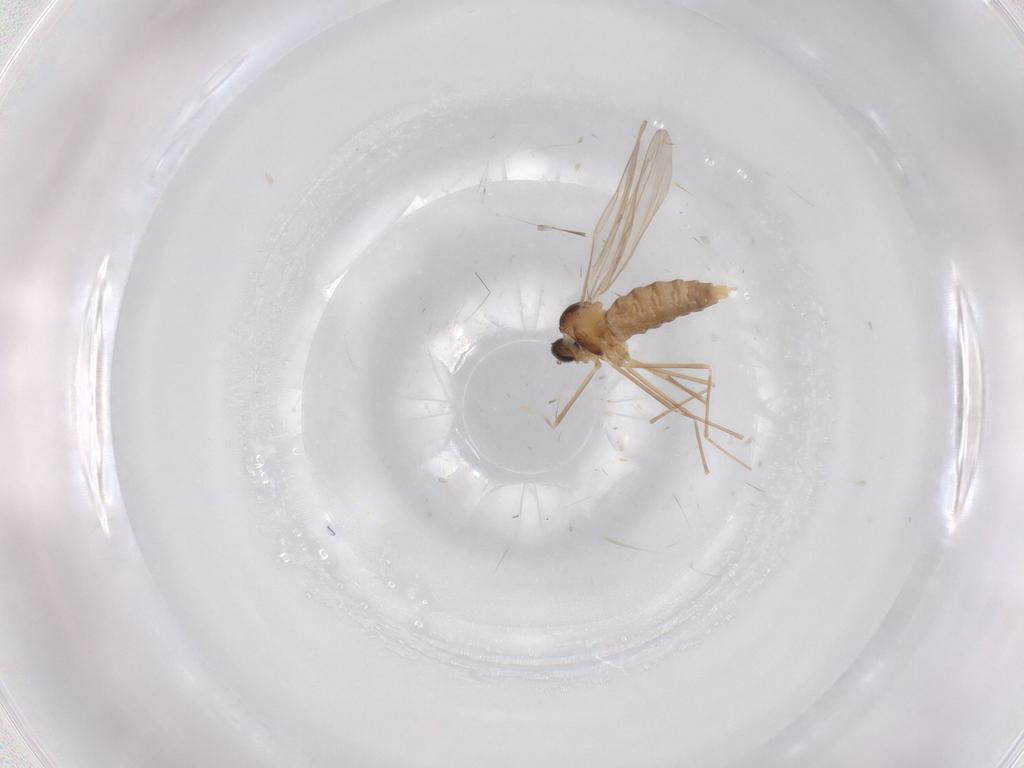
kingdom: Animalia
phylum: Arthropoda
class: Insecta
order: Diptera
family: Cecidomyiidae
